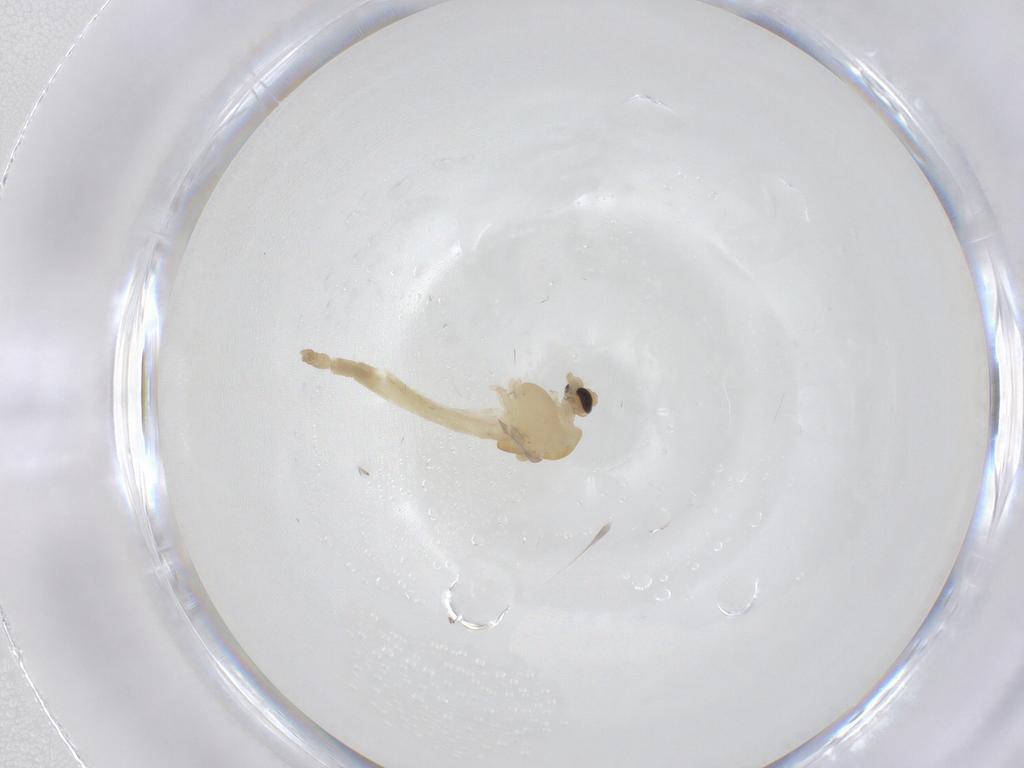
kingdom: Animalia
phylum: Arthropoda
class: Insecta
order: Diptera
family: Chironomidae
